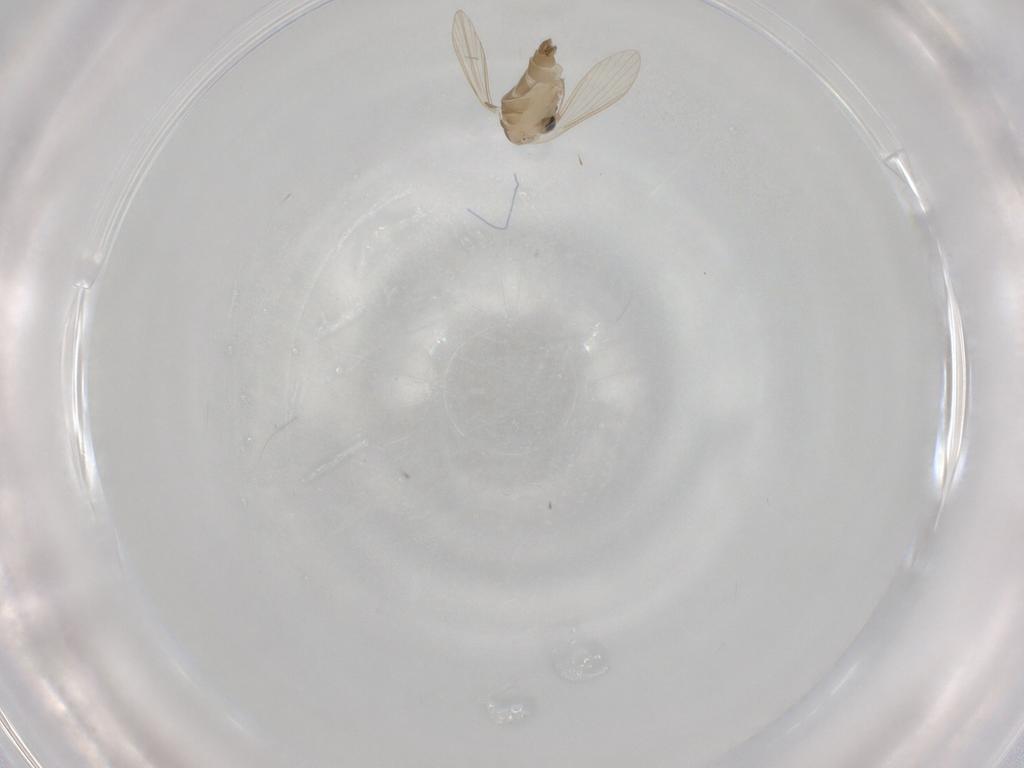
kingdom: Animalia
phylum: Arthropoda
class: Insecta
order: Diptera
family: Psychodidae
